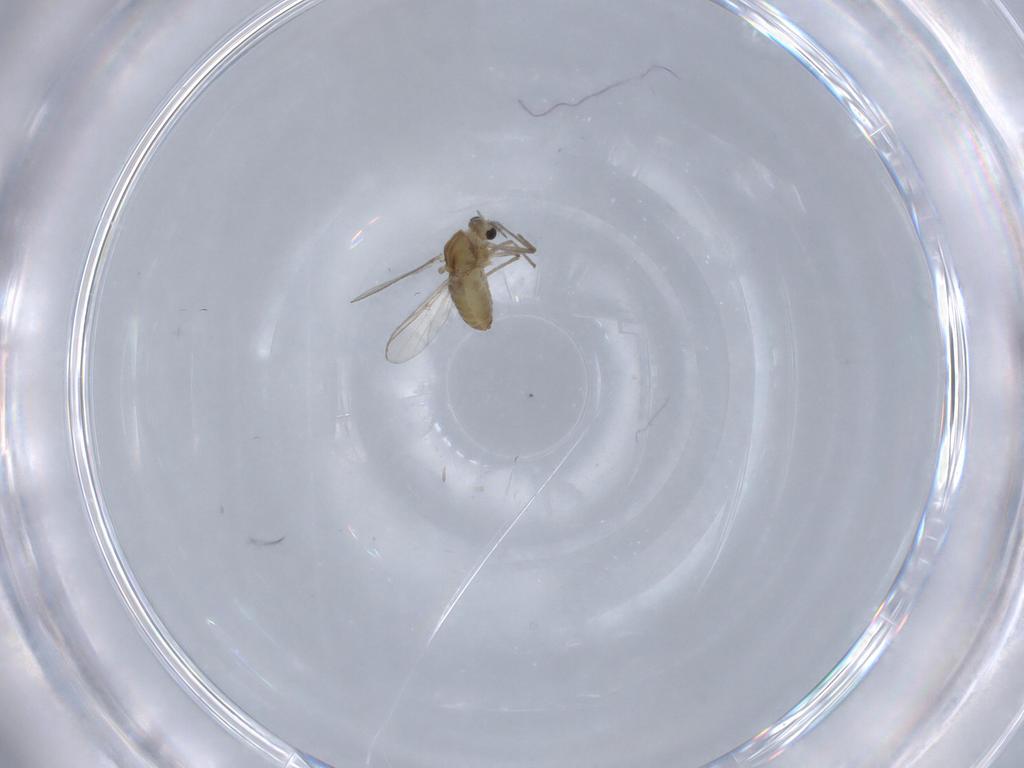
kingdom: Animalia
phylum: Arthropoda
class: Insecta
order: Diptera
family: Chironomidae
